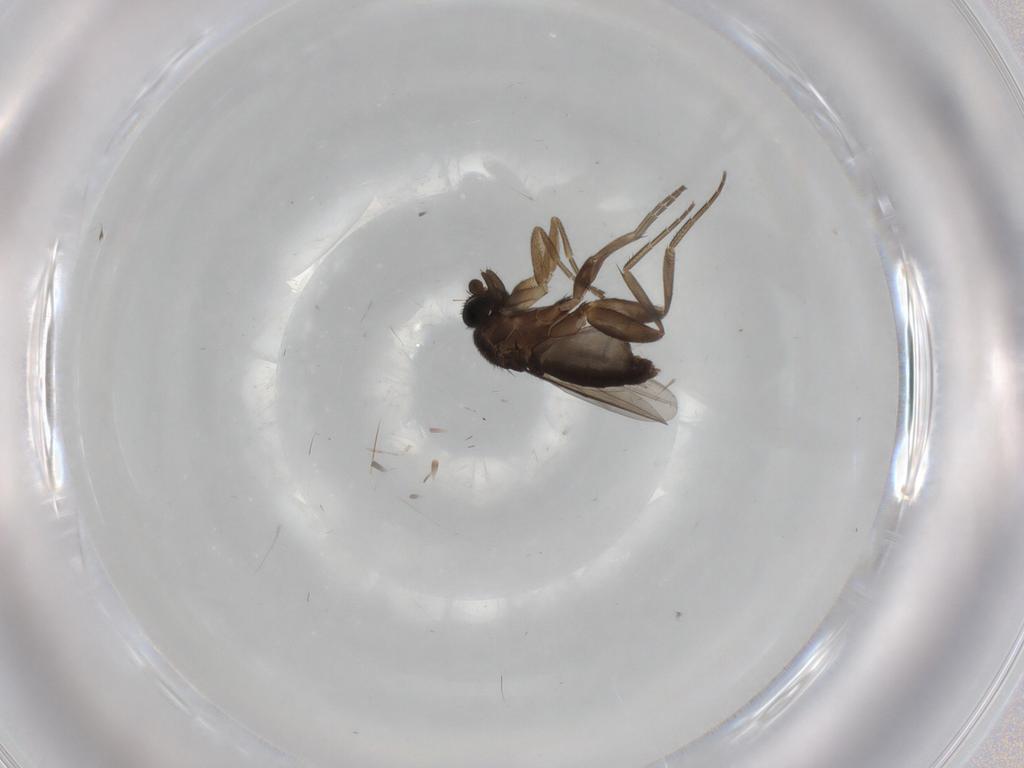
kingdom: Animalia
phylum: Arthropoda
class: Insecta
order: Diptera
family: Phoridae
